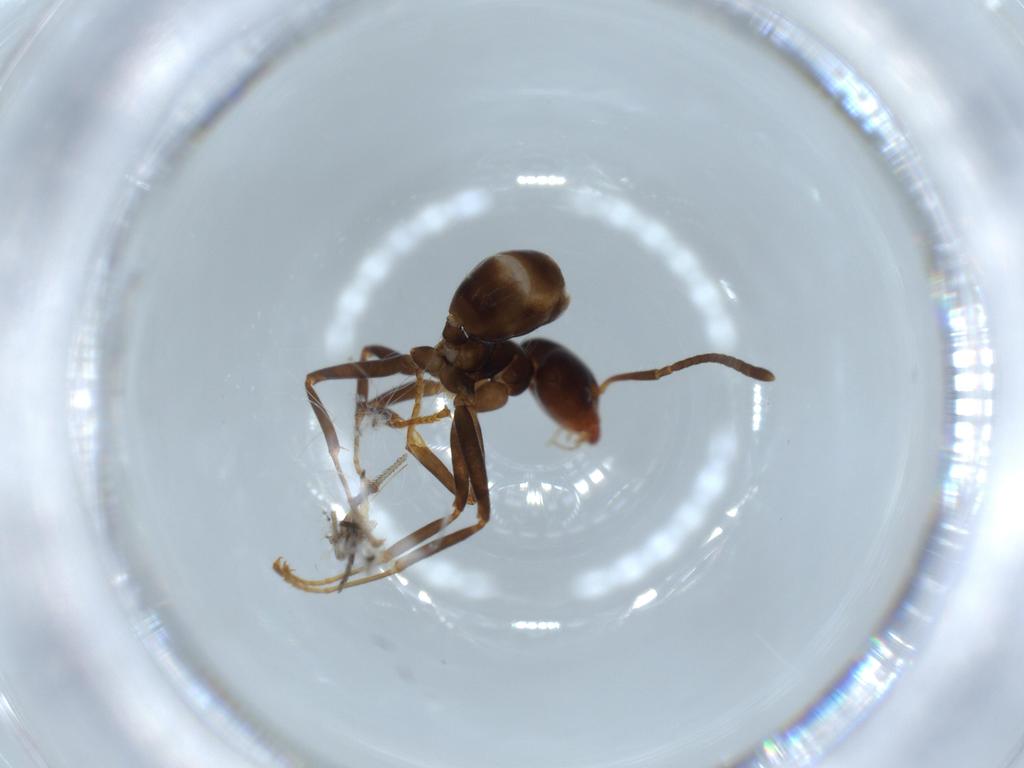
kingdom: Animalia
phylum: Arthropoda
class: Insecta
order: Hymenoptera
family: Formicidae
